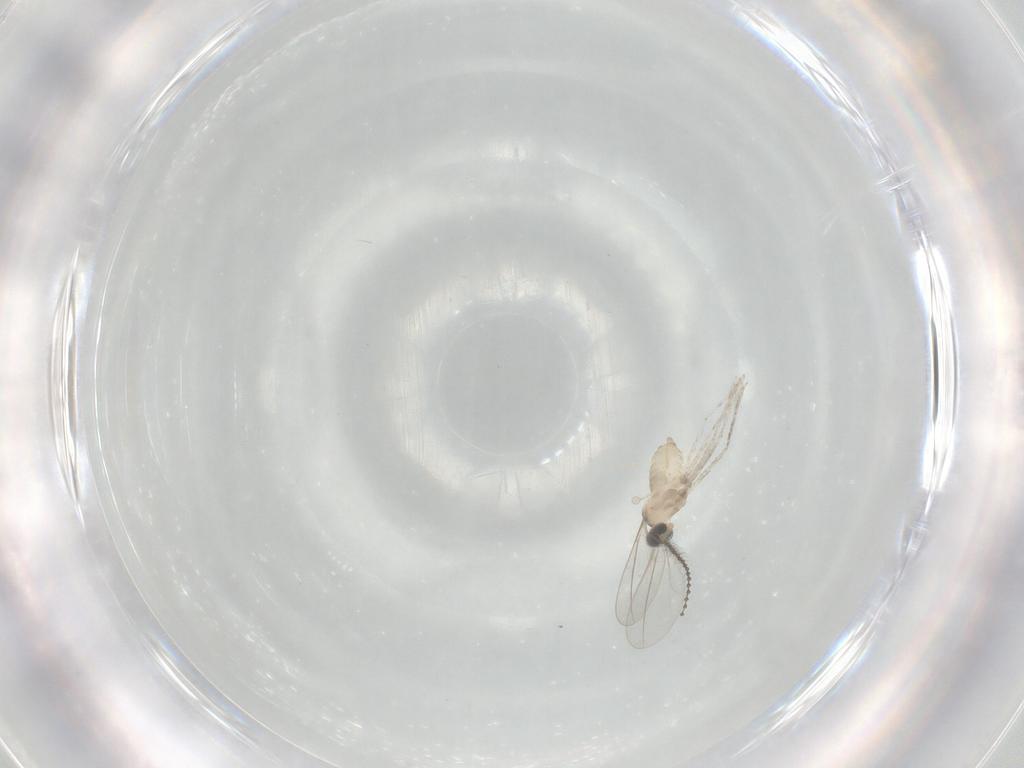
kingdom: Animalia
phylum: Arthropoda
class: Insecta
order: Diptera
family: Cecidomyiidae
